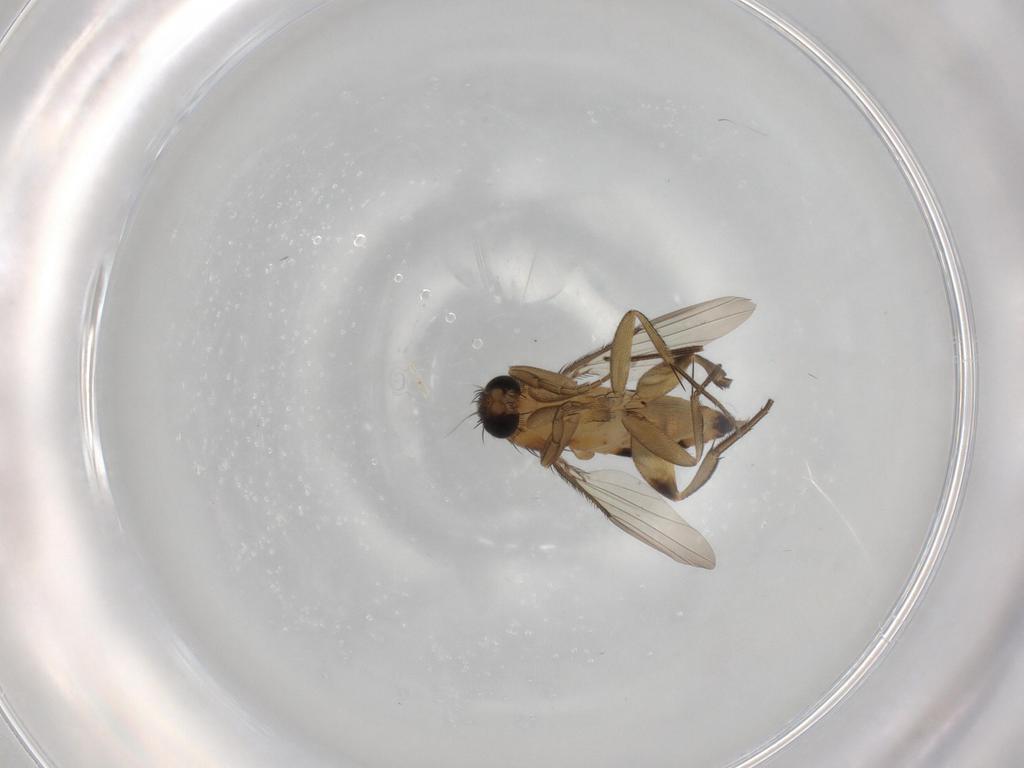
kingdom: Animalia
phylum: Arthropoda
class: Insecta
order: Diptera
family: Phoridae
